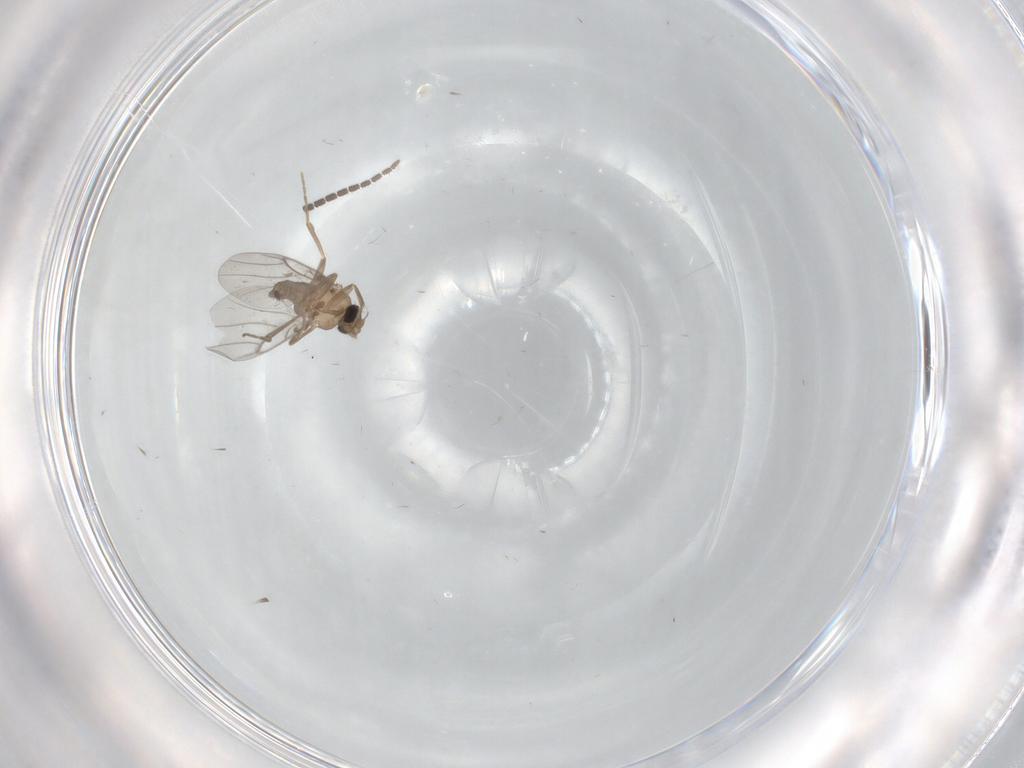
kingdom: Animalia
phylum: Arthropoda
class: Insecta
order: Diptera
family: Sciaridae
